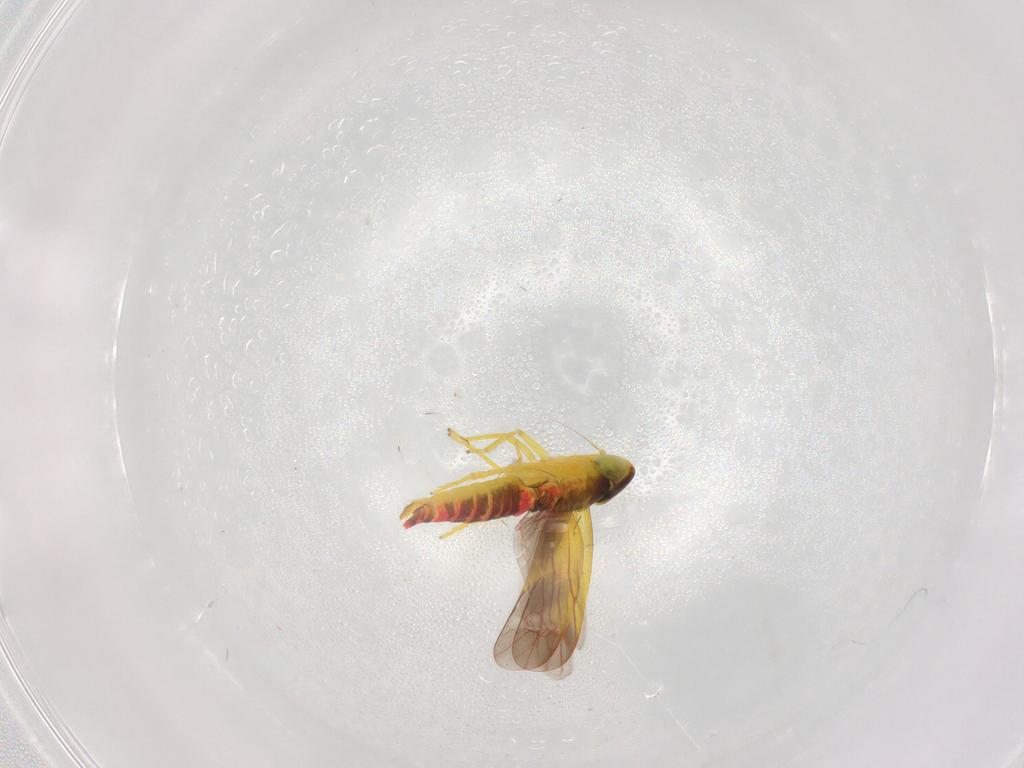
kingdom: Animalia
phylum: Arthropoda
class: Insecta
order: Hemiptera
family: Cicadellidae
